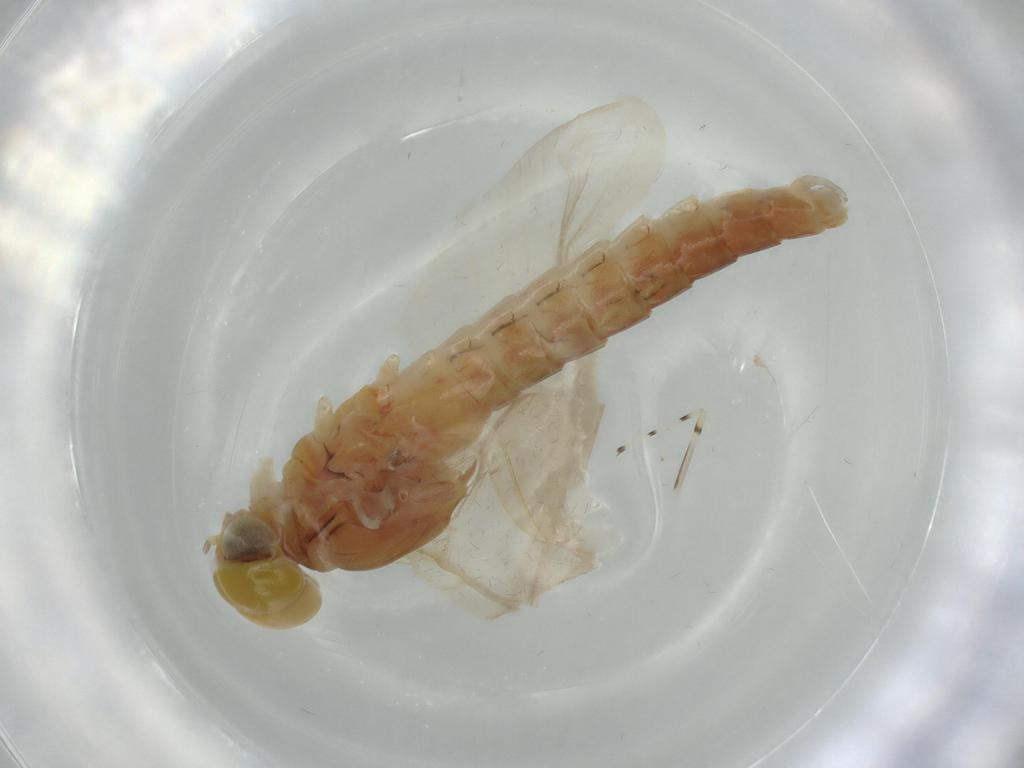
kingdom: Animalia
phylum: Arthropoda
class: Insecta
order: Ephemeroptera
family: Baetidae
